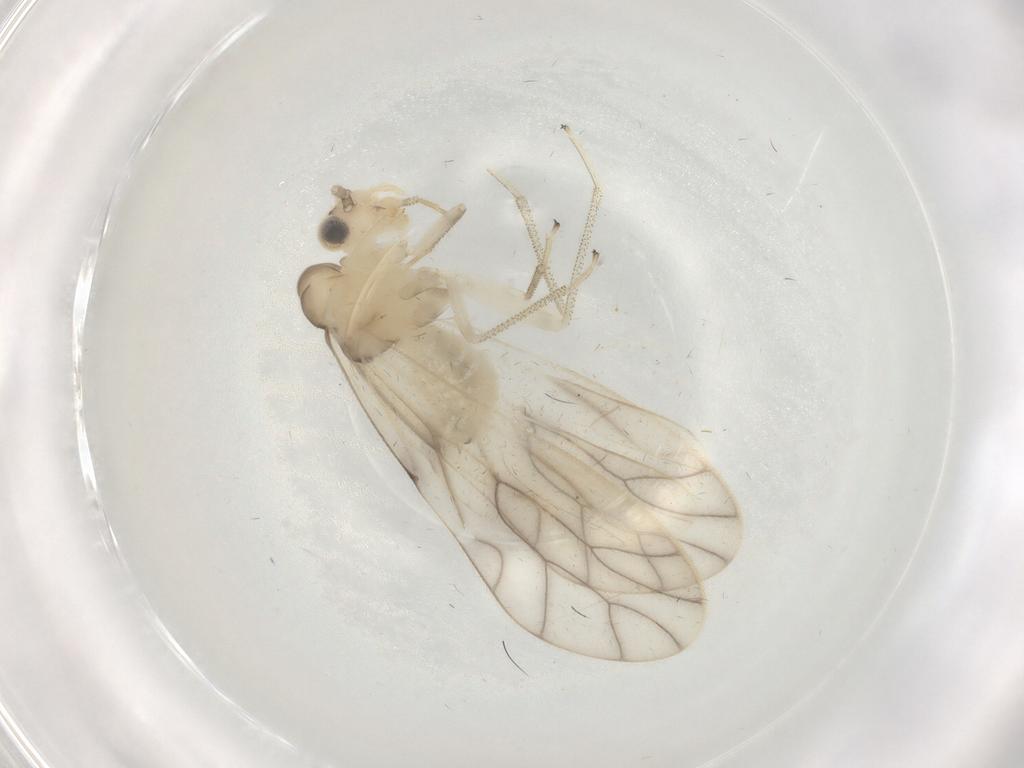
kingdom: Animalia
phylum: Arthropoda
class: Insecta
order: Psocodea
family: Caeciliusidae
